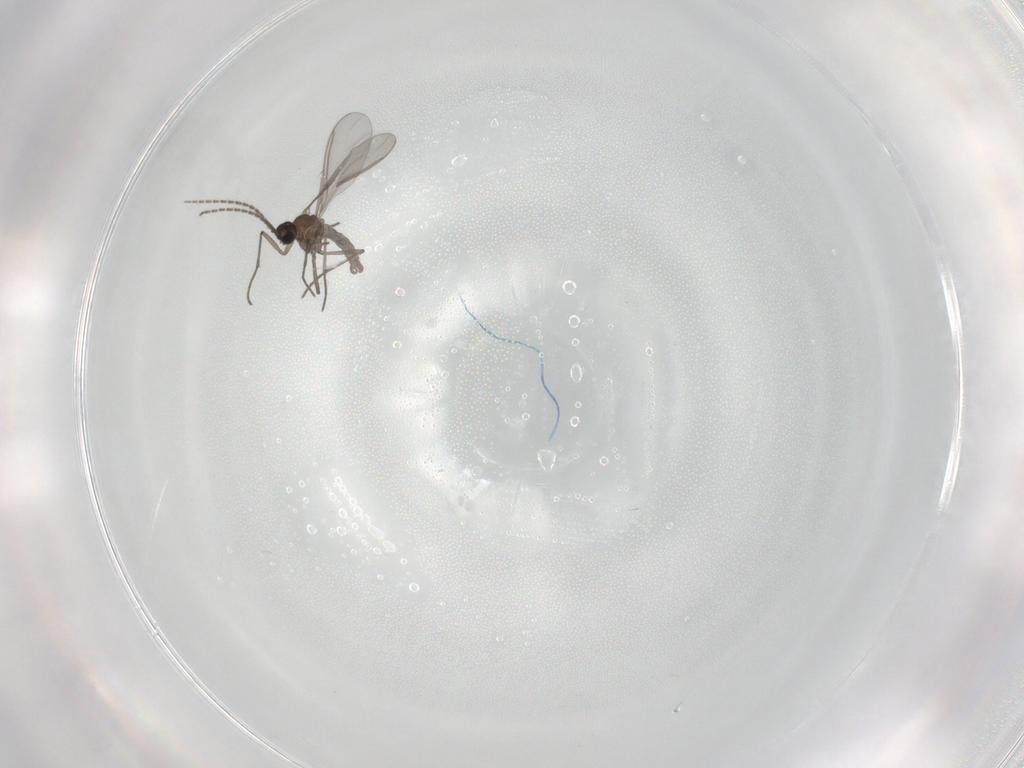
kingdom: Animalia
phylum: Arthropoda
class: Insecta
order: Diptera
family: Sciaridae
